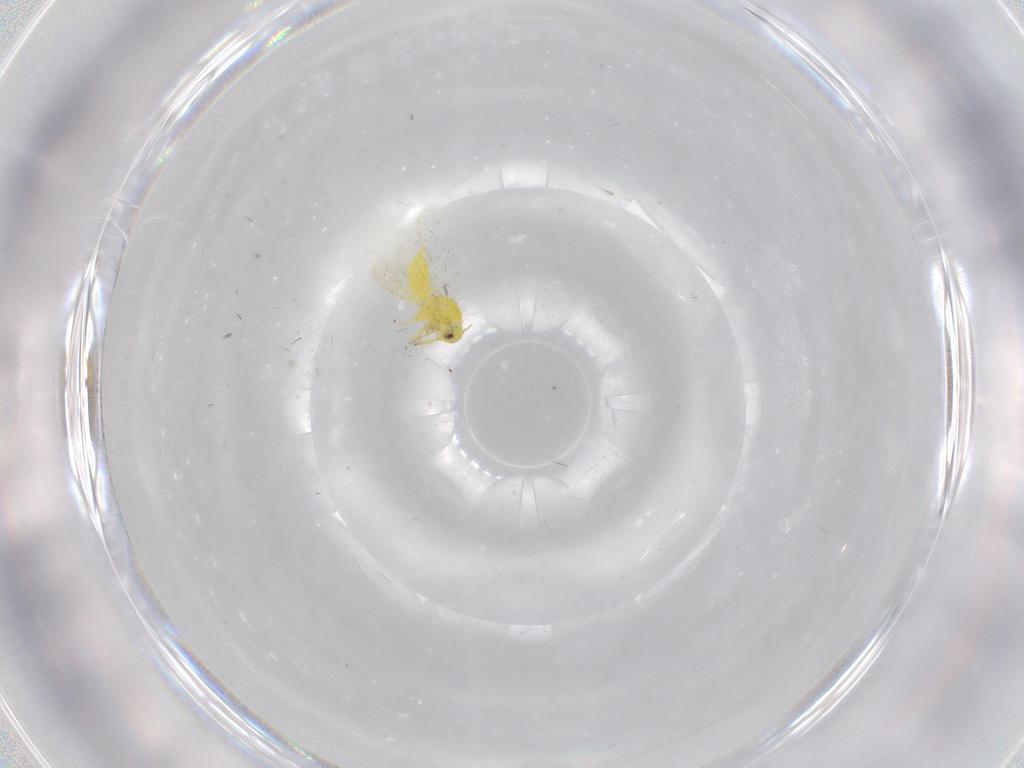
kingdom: Animalia
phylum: Arthropoda
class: Insecta
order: Hemiptera
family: Aleyrodidae
